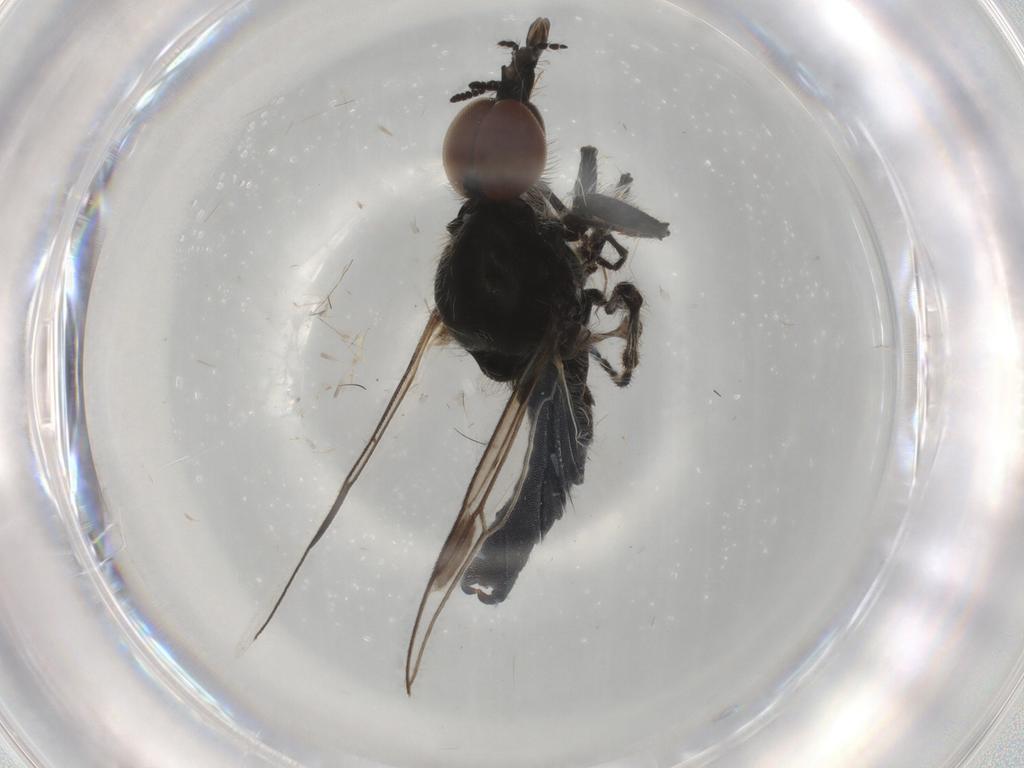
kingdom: Animalia
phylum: Arthropoda
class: Insecta
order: Diptera
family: Bibionidae
